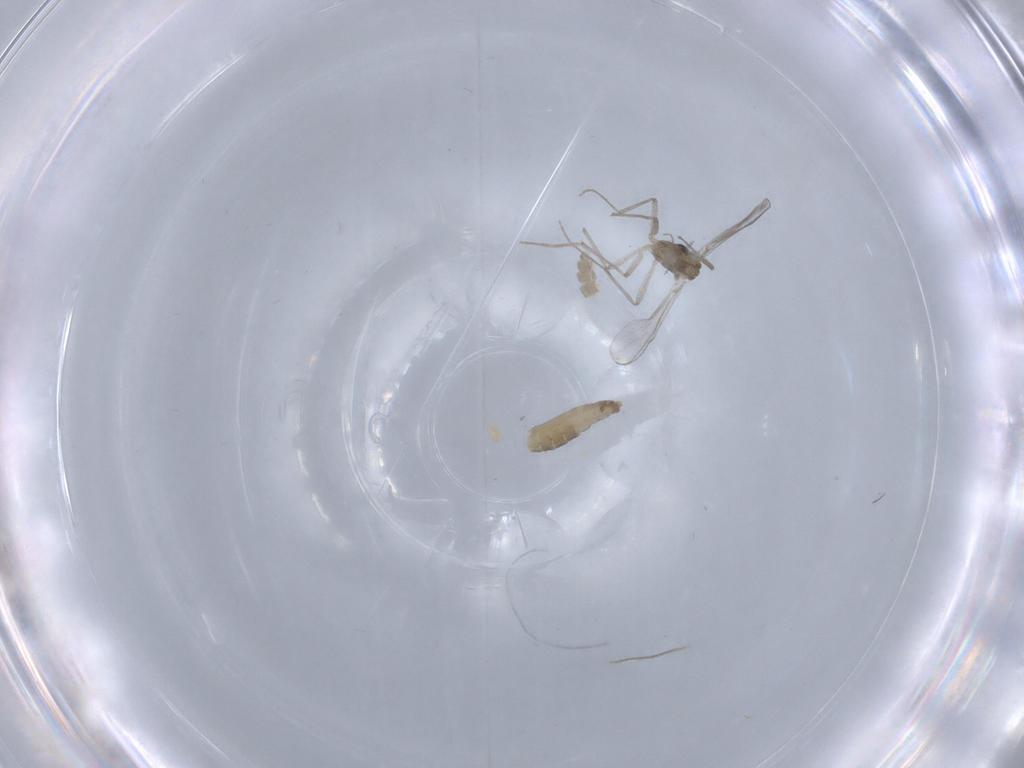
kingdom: Animalia
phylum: Arthropoda
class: Insecta
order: Diptera
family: Chironomidae
